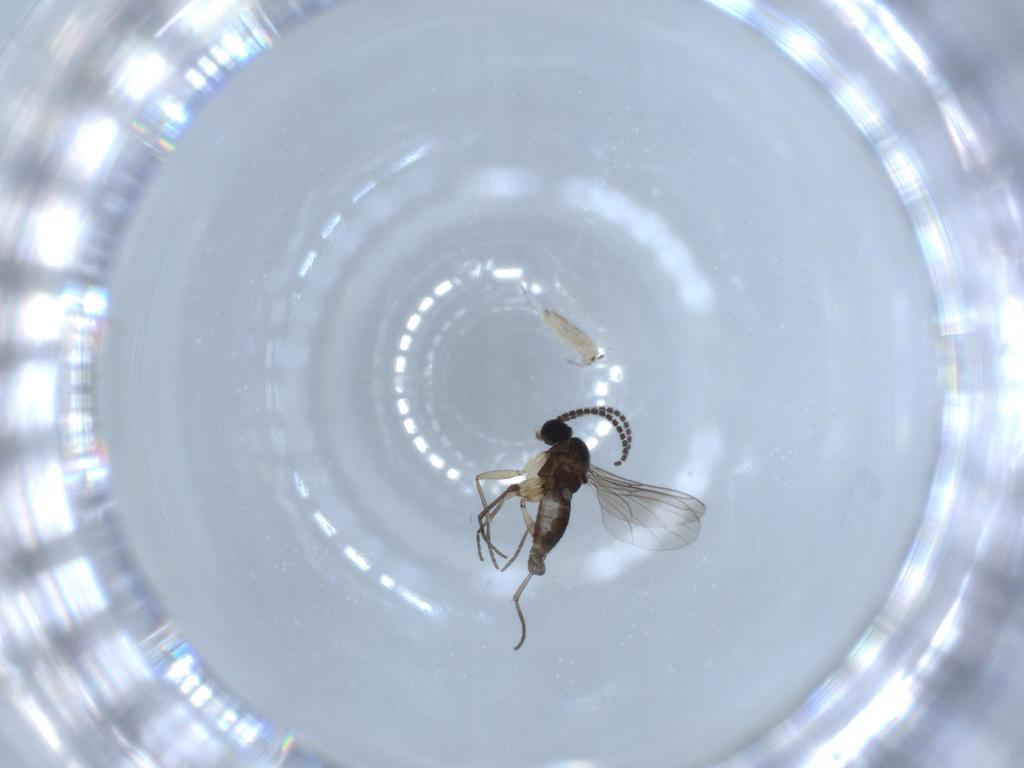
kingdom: Animalia
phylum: Arthropoda
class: Insecta
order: Diptera
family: Sciaridae
